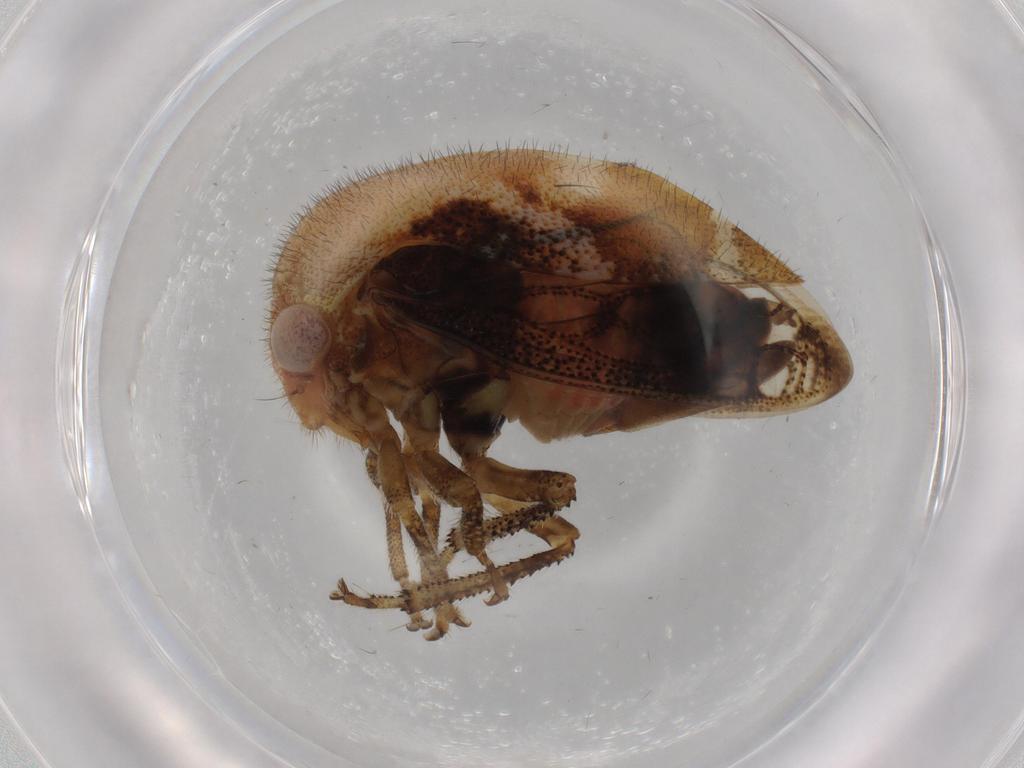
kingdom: Animalia
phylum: Arthropoda
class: Insecta
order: Hemiptera
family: Membracidae
